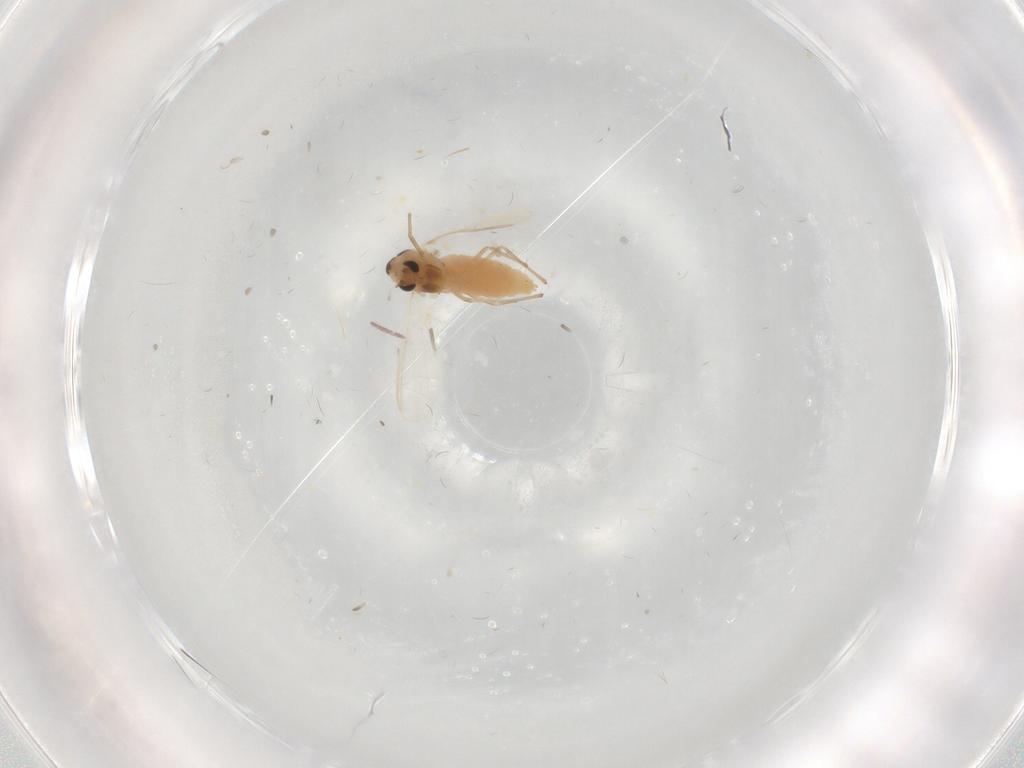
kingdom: Animalia
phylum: Arthropoda
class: Insecta
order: Diptera
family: Chironomidae
